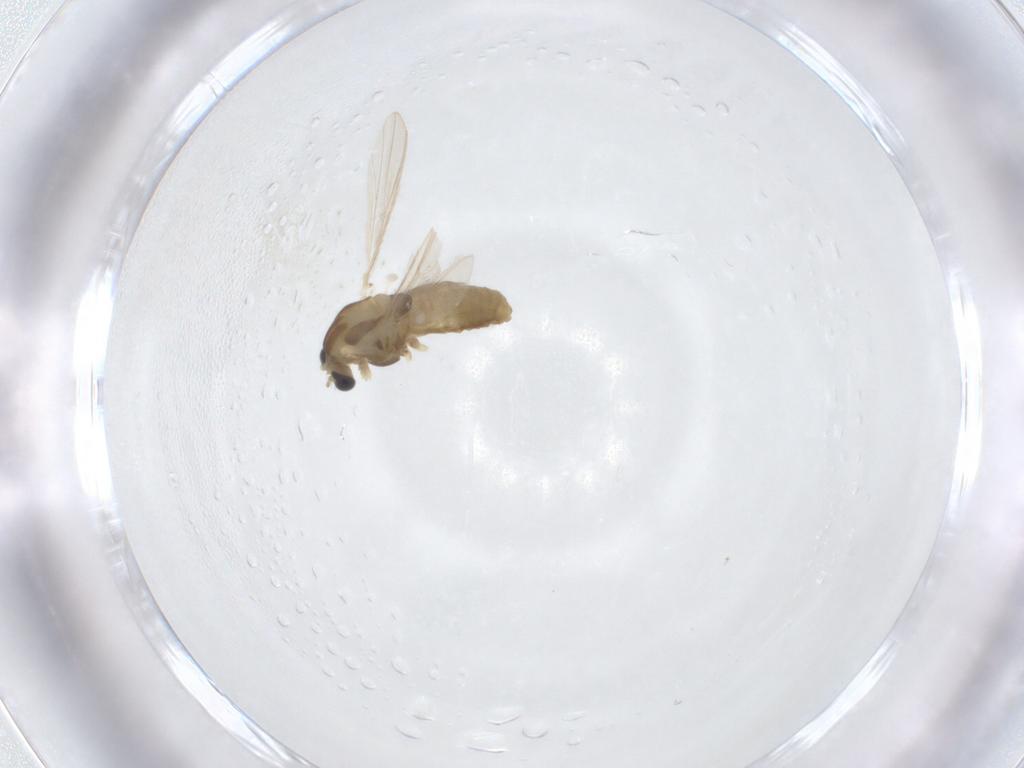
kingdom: Animalia
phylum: Arthropoda
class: Insecta
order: Diptera
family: Chironomidae
